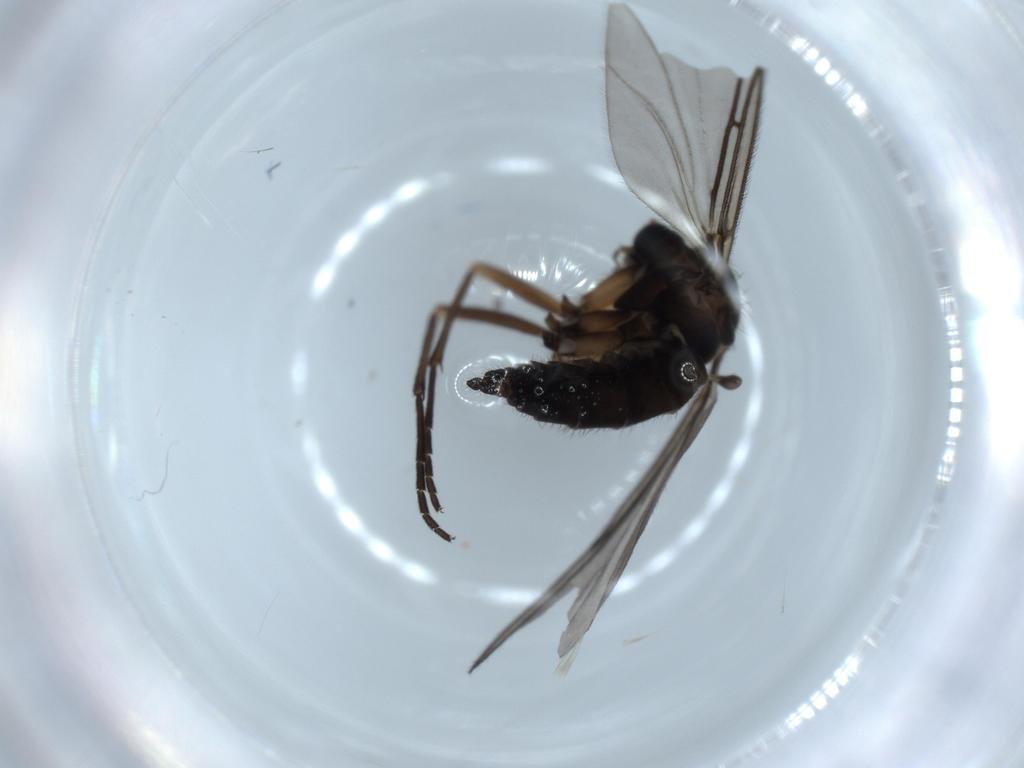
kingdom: Animalia
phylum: Arthropoda
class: Insecta
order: Diptera
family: Sciaridae
